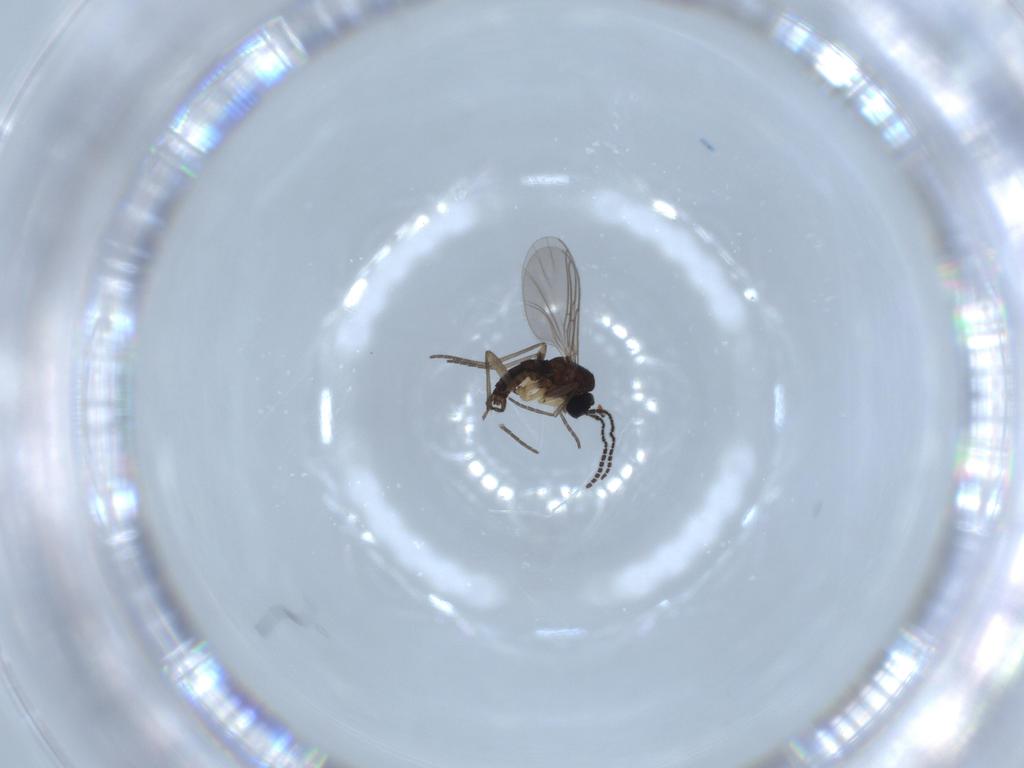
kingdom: Animalia
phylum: Arthropoda
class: Insecta
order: Diptera
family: Sciaridae
